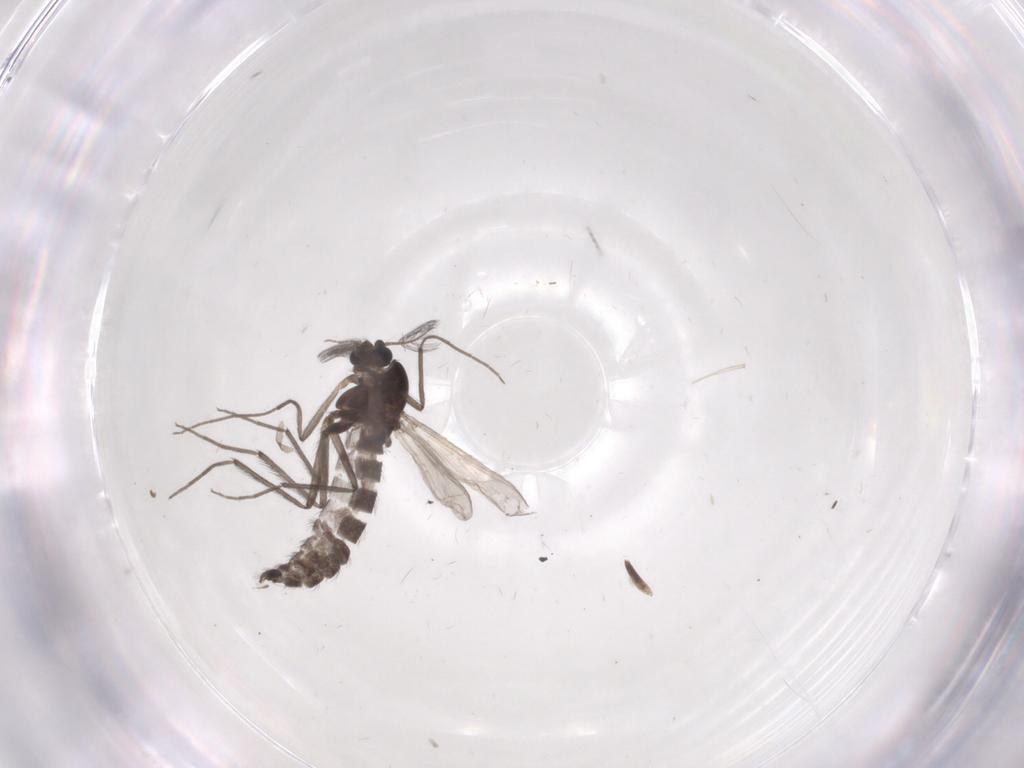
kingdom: Animalia
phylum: Arthropoda
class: Insecta
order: Diptera
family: Chironomidae
